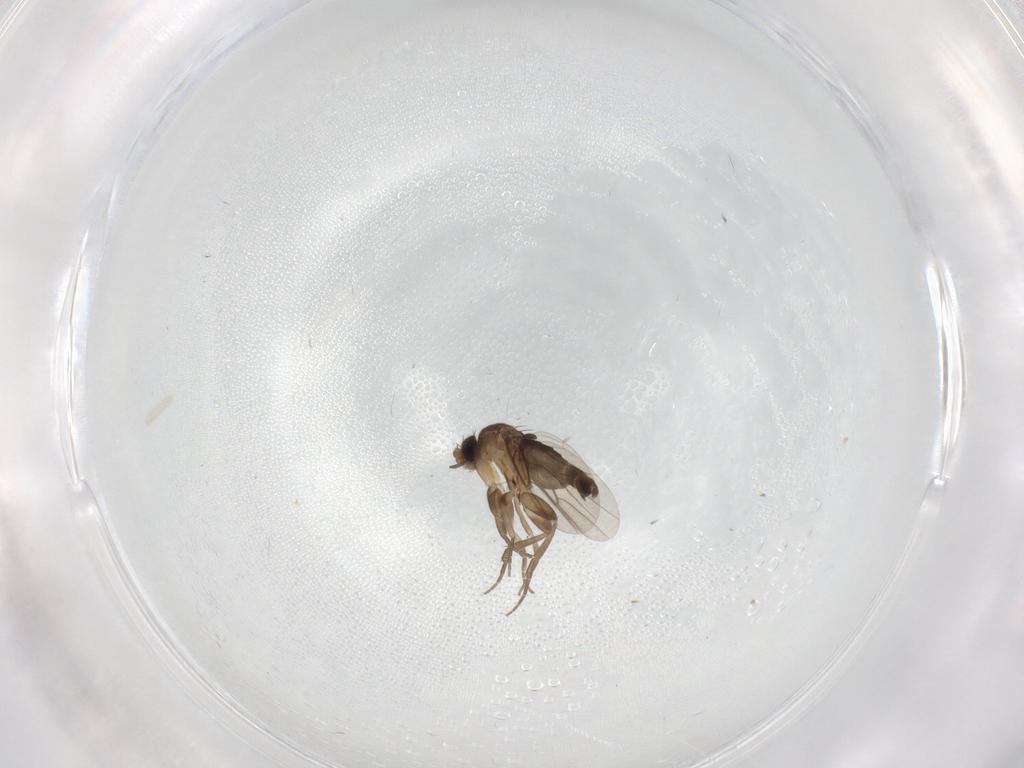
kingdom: Animalia
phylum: Arthropoda
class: Insecta
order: Diptera
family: Phoridae
